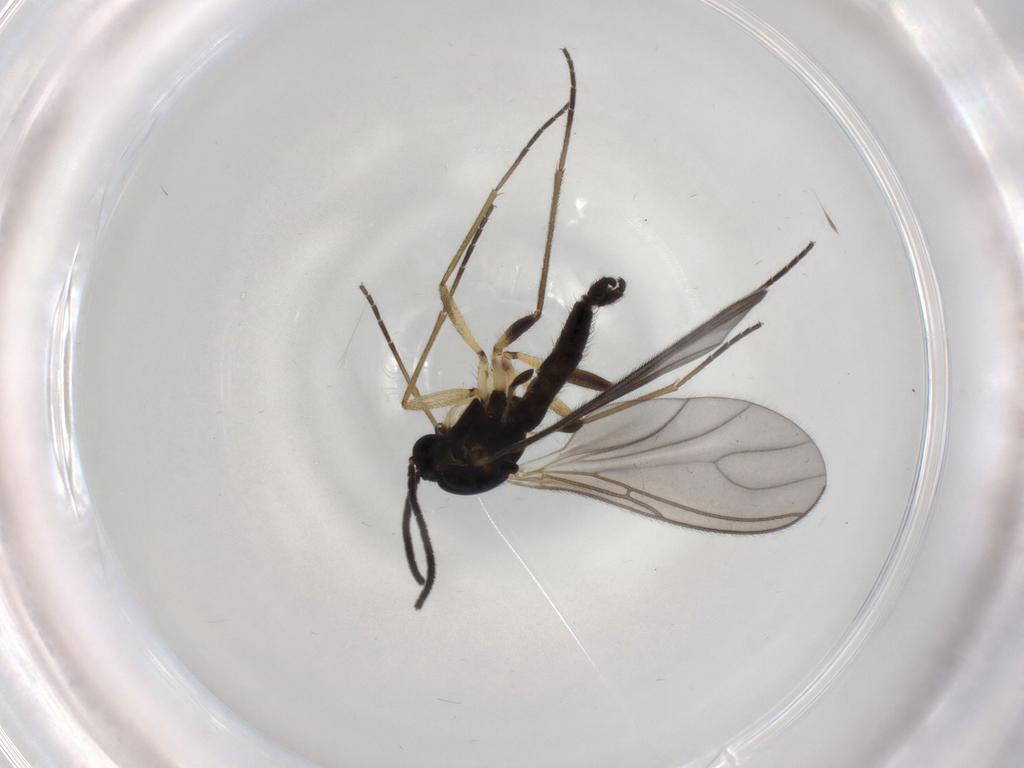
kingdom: Animalia
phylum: Arthropoda
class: Insecta
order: Diptera
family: Sciaridae
